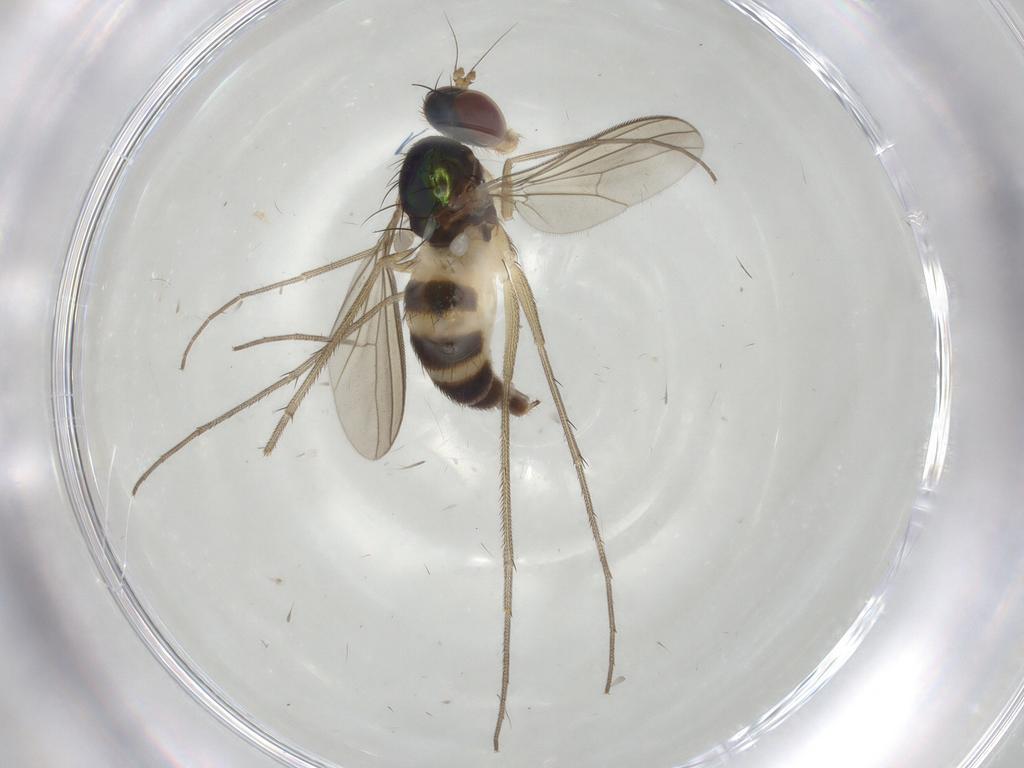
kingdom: Animalia
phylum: Arthropoda
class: Insecta
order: Diptera
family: Dolichopodidae
